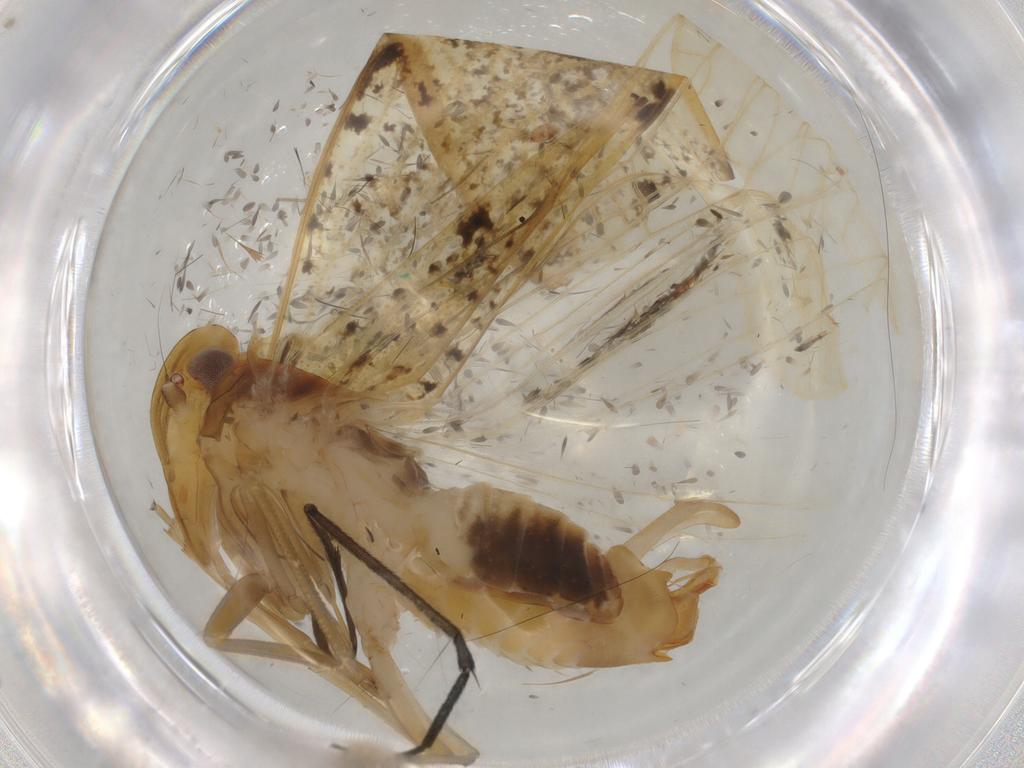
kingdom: Animalia
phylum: Arthropoda
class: Insecta
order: Hemiptera
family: Cixiidae
